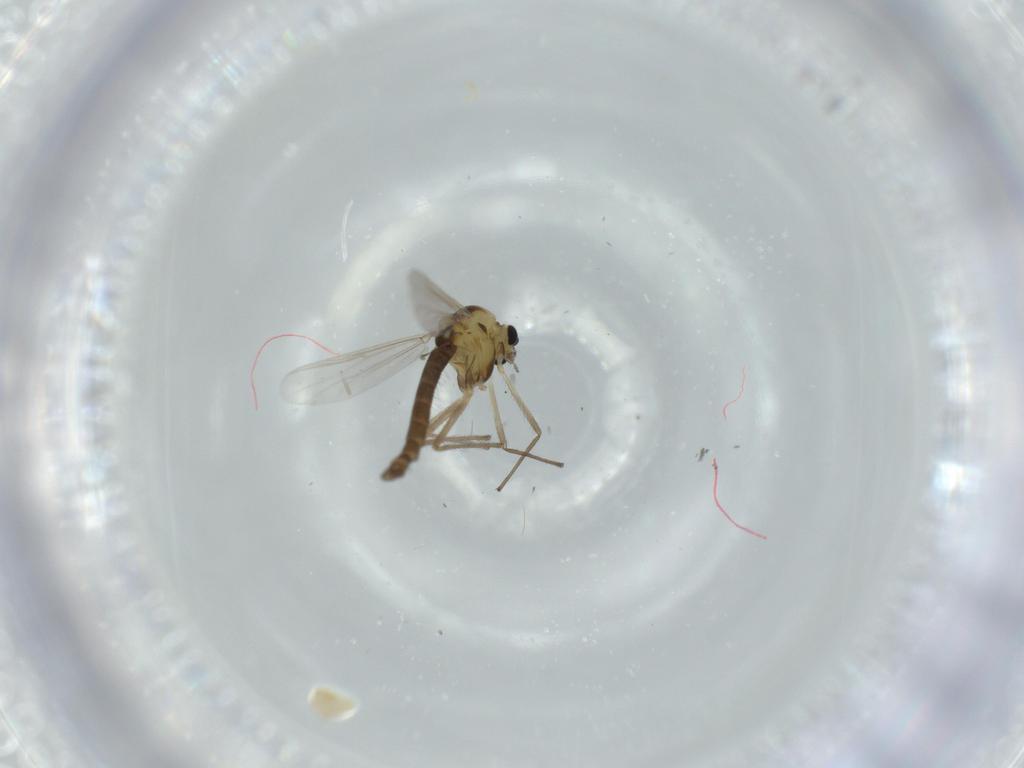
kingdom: Animalia
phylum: Arthropoda
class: Insecta
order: Diptera
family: Chironomidae
